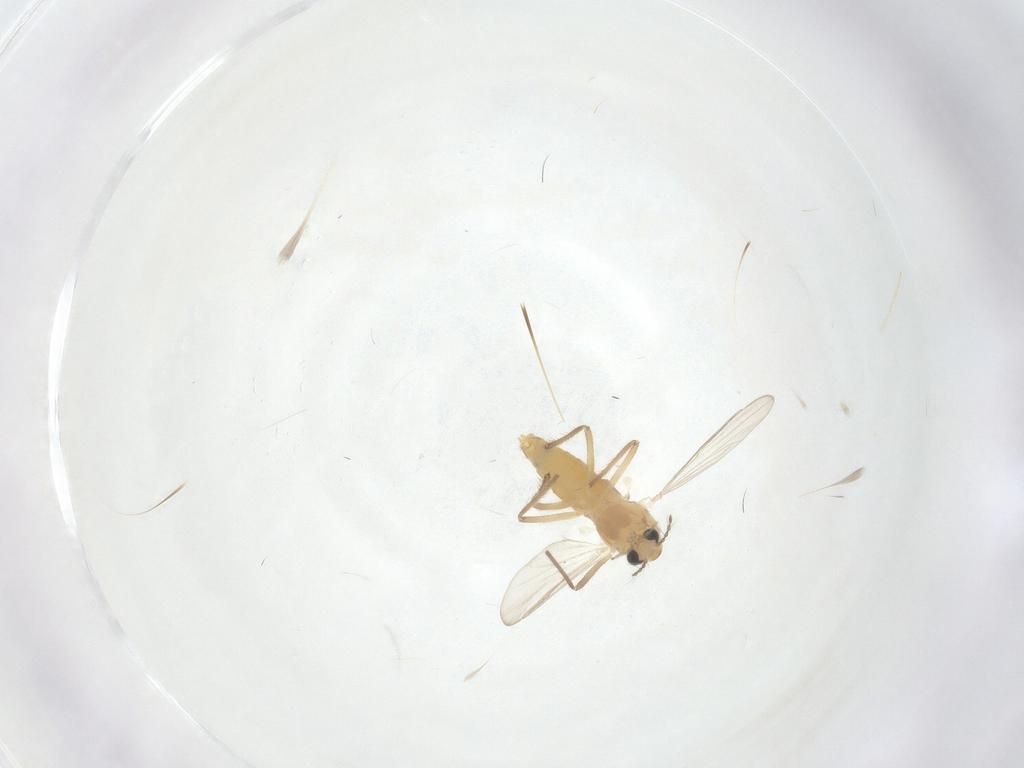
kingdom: Animalia
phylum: Arthropoda
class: Insecta
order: Diptera
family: Chironomidae
